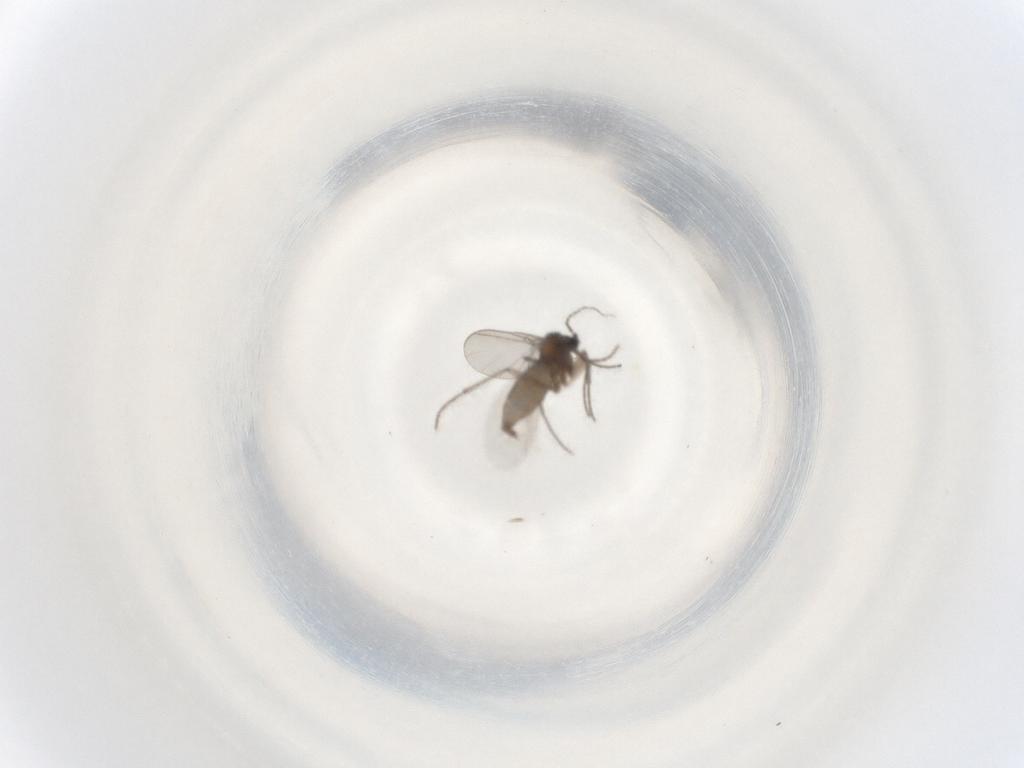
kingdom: Animalia
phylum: Arthropoda
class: Insecta
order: Diptera
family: Sciaridae
